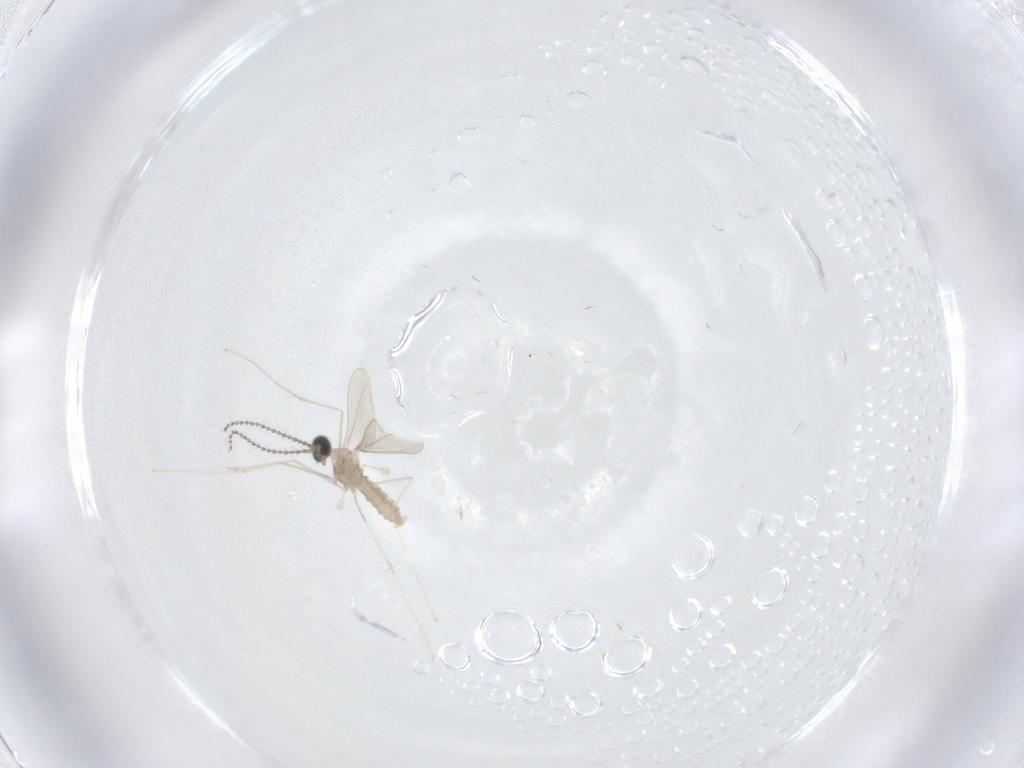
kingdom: Animalia
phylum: Arthropoda
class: Insecta
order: Diptera
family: Cecidomyiidae
